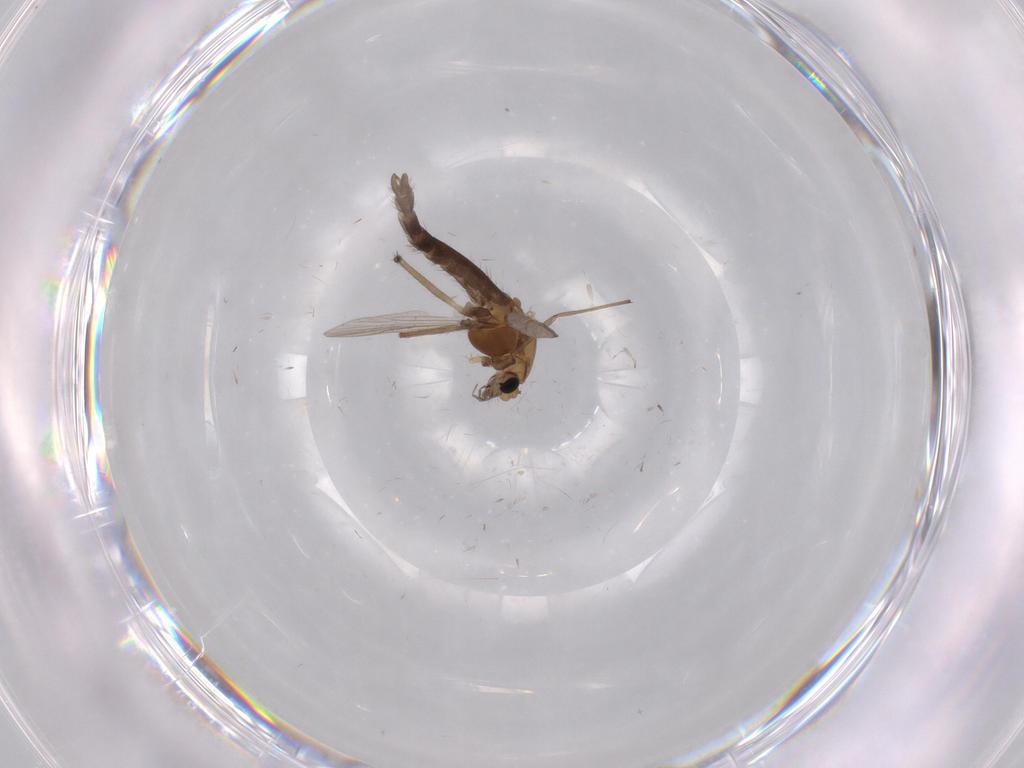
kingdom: Animalia
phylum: Arthropoda
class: Insecta
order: Diptera
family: Chironomidae
